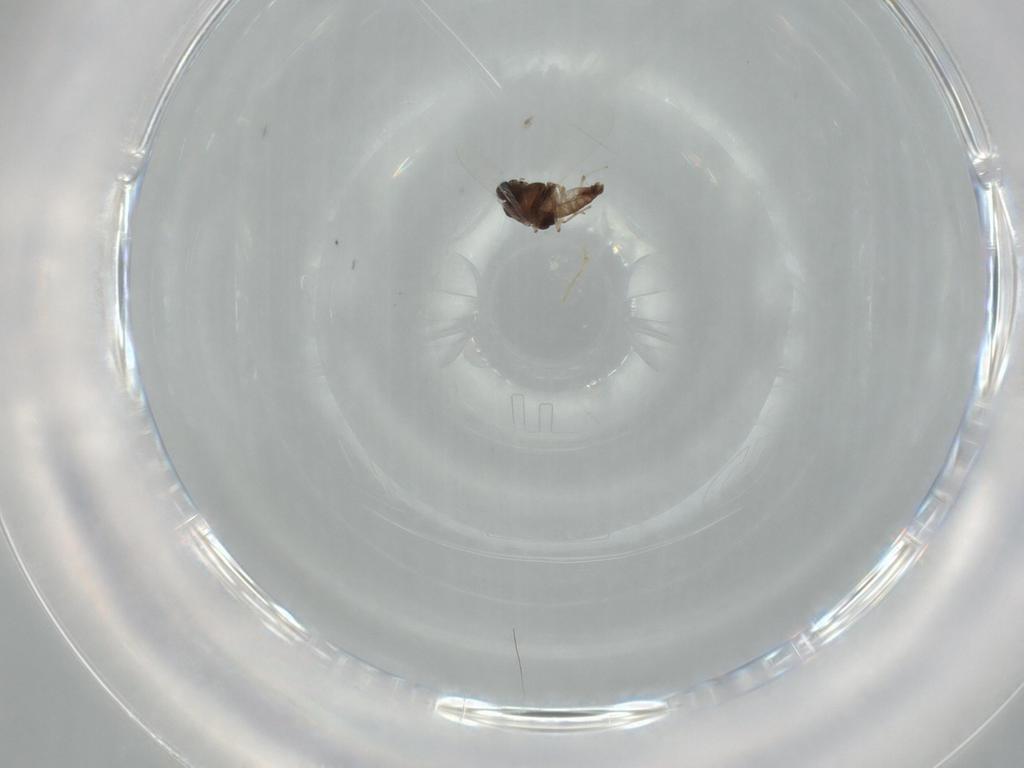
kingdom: Animalia
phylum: Arthropoda
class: Insecta
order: Diptera
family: Chironomidae
